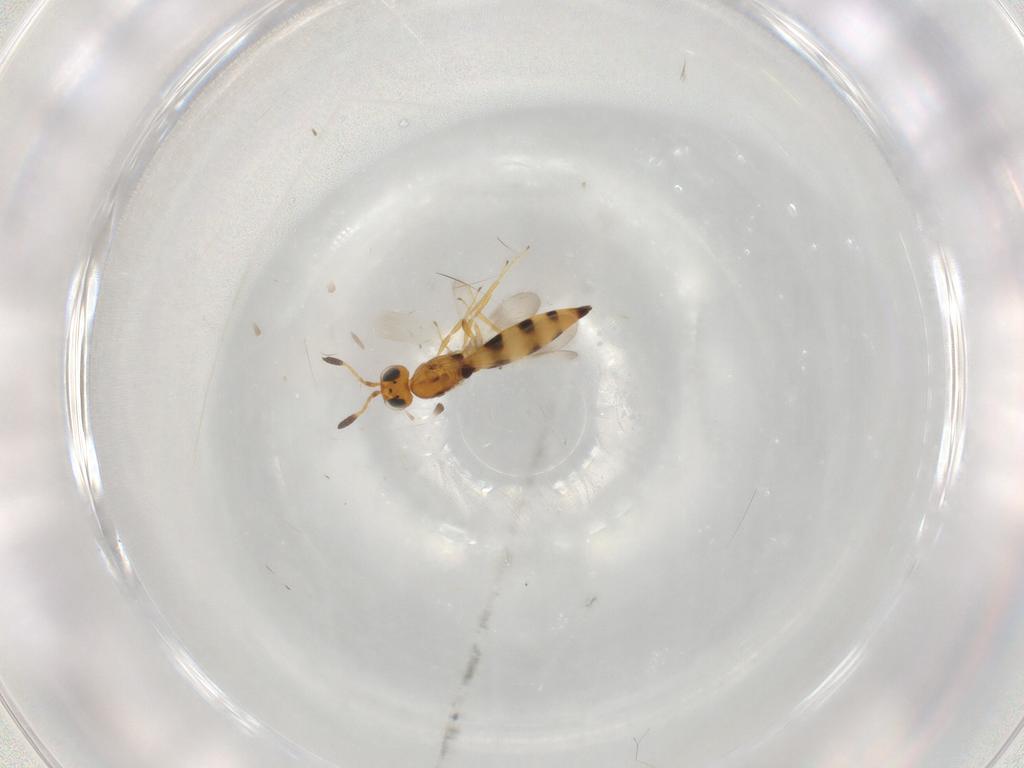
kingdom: Animalia
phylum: Arthropoda
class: Insecta
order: Hymenoptera
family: Scelionidae
